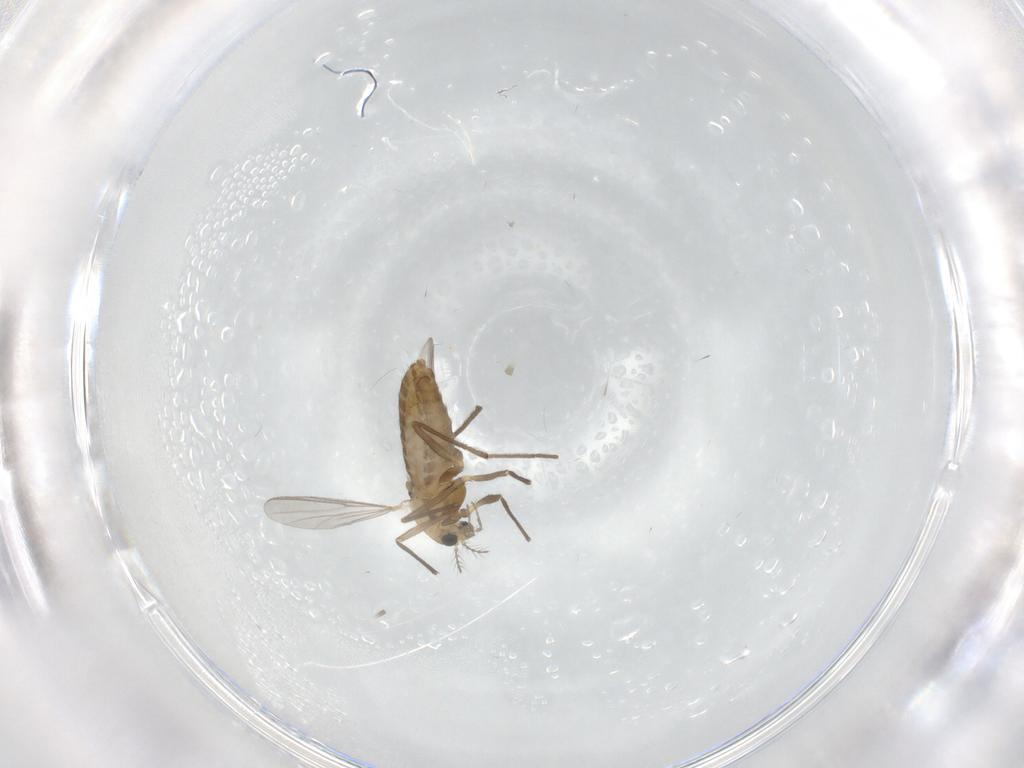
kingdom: Animalia
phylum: Arthropoda
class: Insecta
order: Diptera
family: Chironomidae
